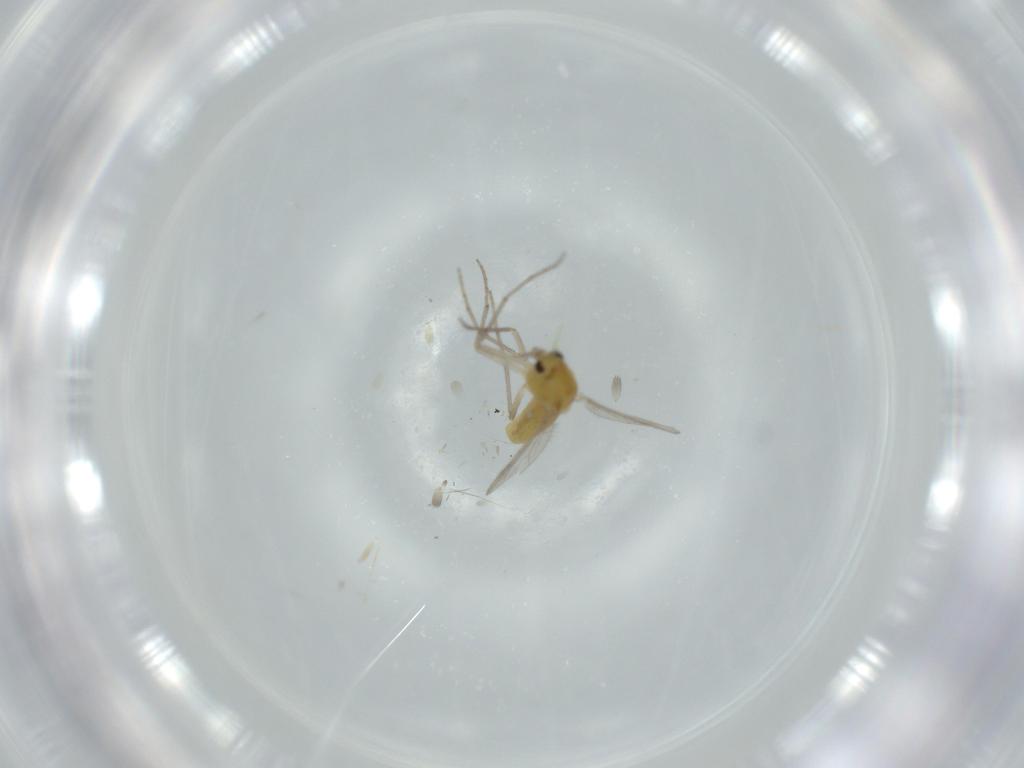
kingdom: Animalia
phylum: Arthropoda
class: Insecta
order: Diptera
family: Chironomidae
